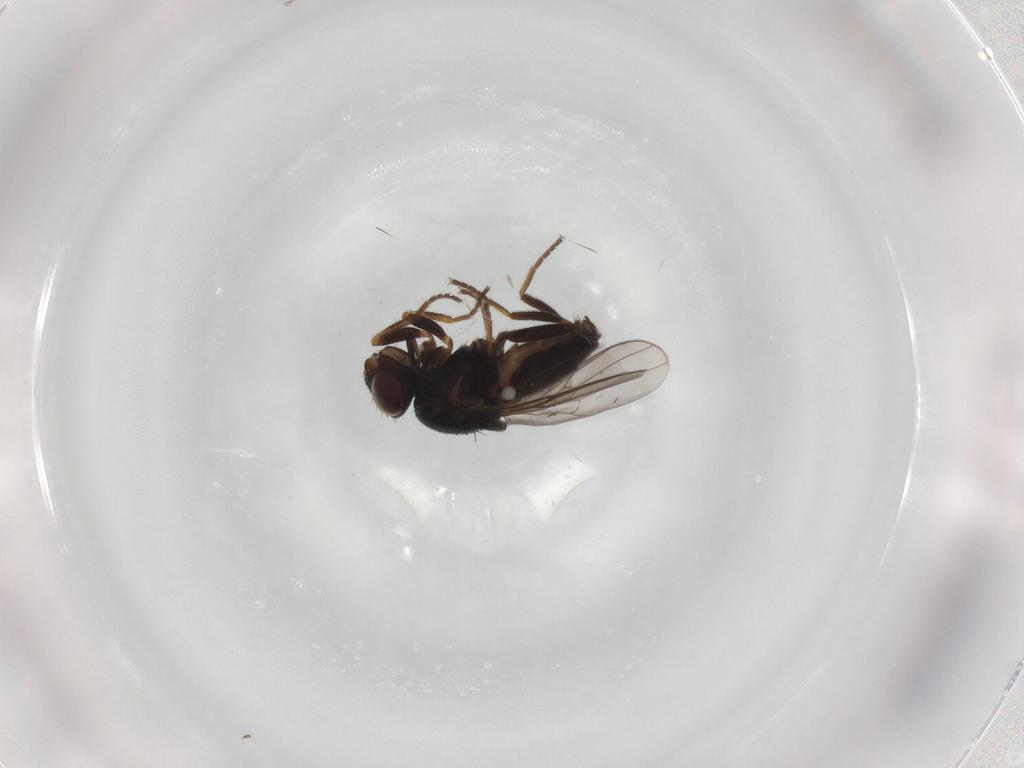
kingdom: Animalia
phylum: Arthropoda
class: Insecta
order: Diptera
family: Chloropidae
